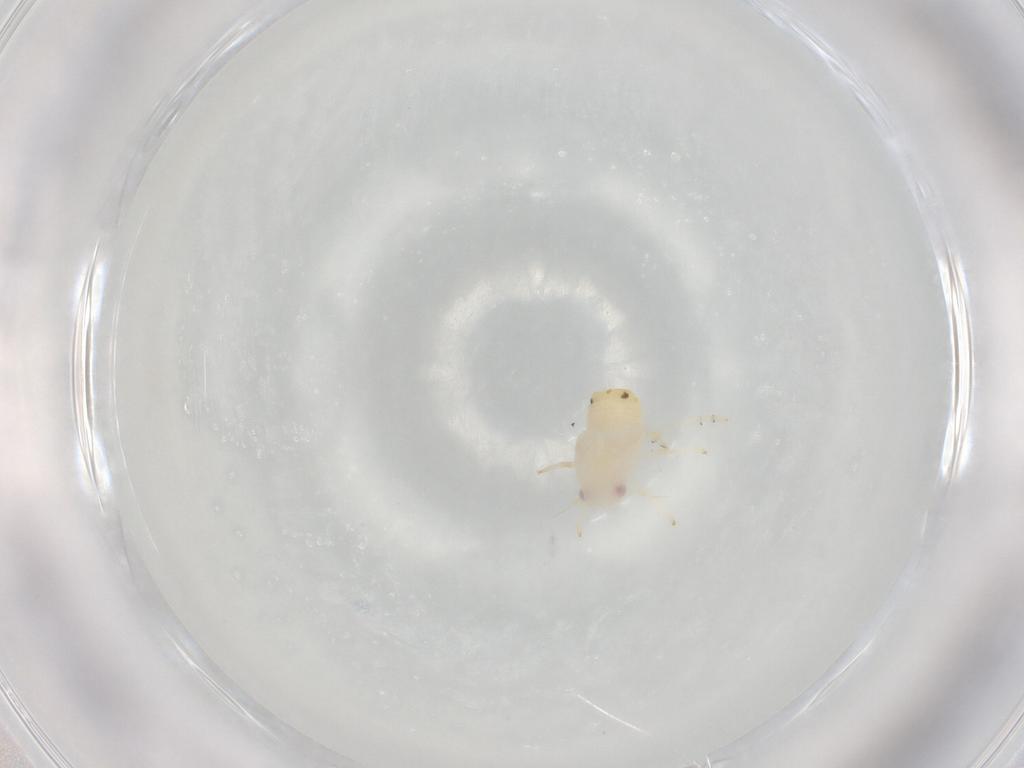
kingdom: Animalia
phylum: Arthropoda
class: Insecta
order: Hemiptera
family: Flatidae
